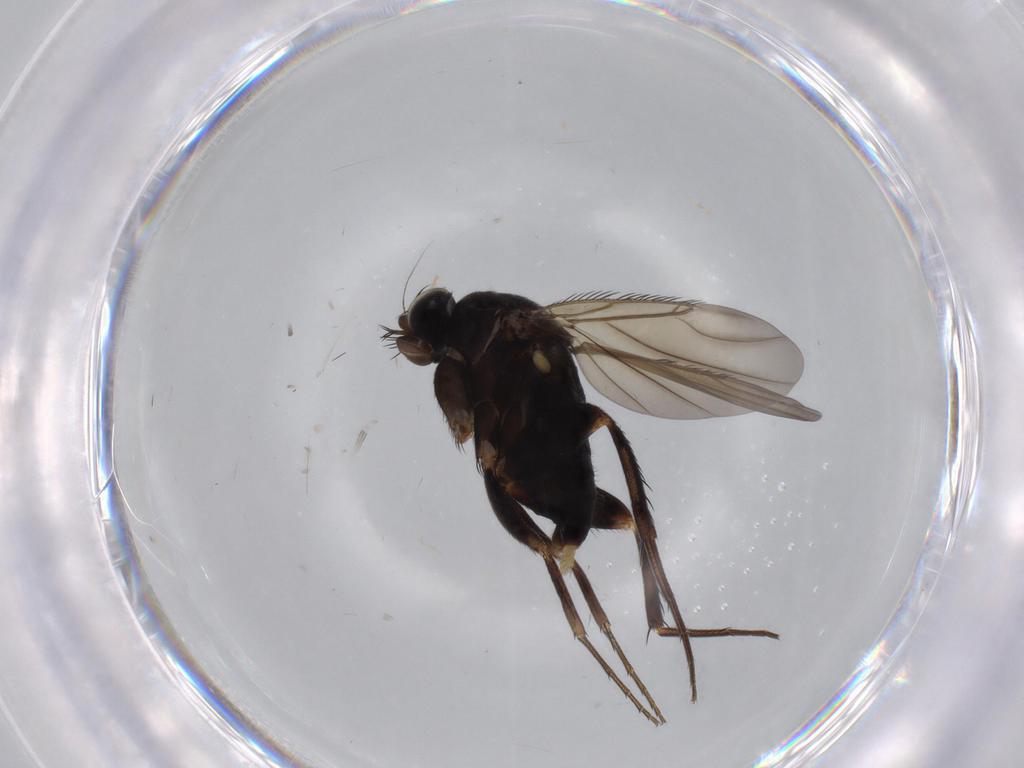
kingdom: Animalia
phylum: Arthropoda
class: Insecta
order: Diptera
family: Phoridae
